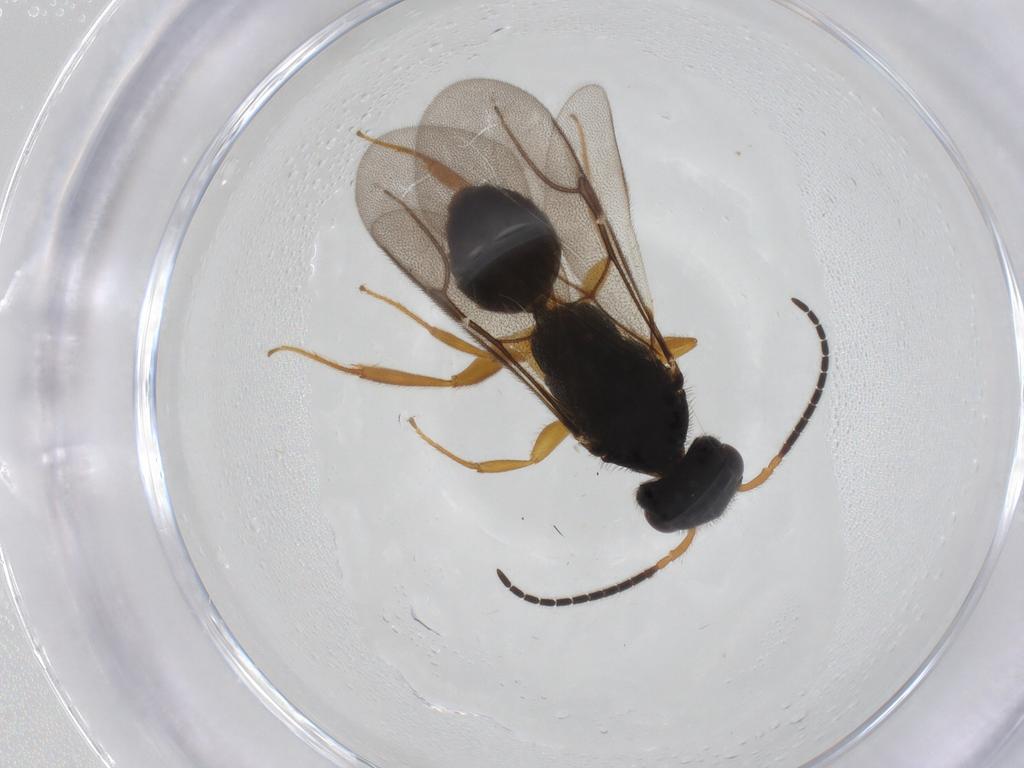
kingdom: Animalia
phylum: Arthropoda
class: Insecta
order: Hymenoptera
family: Bethylidae
